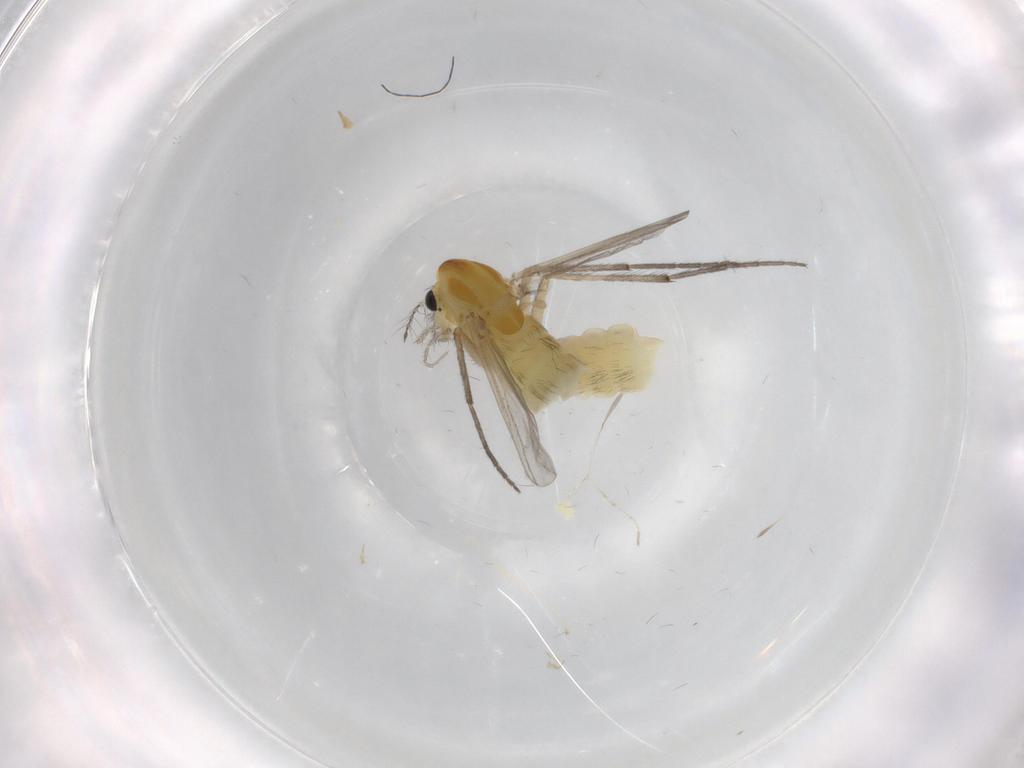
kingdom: Animalia
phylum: Arthropoda
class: Insecta
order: Diptera
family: Chironomidae
